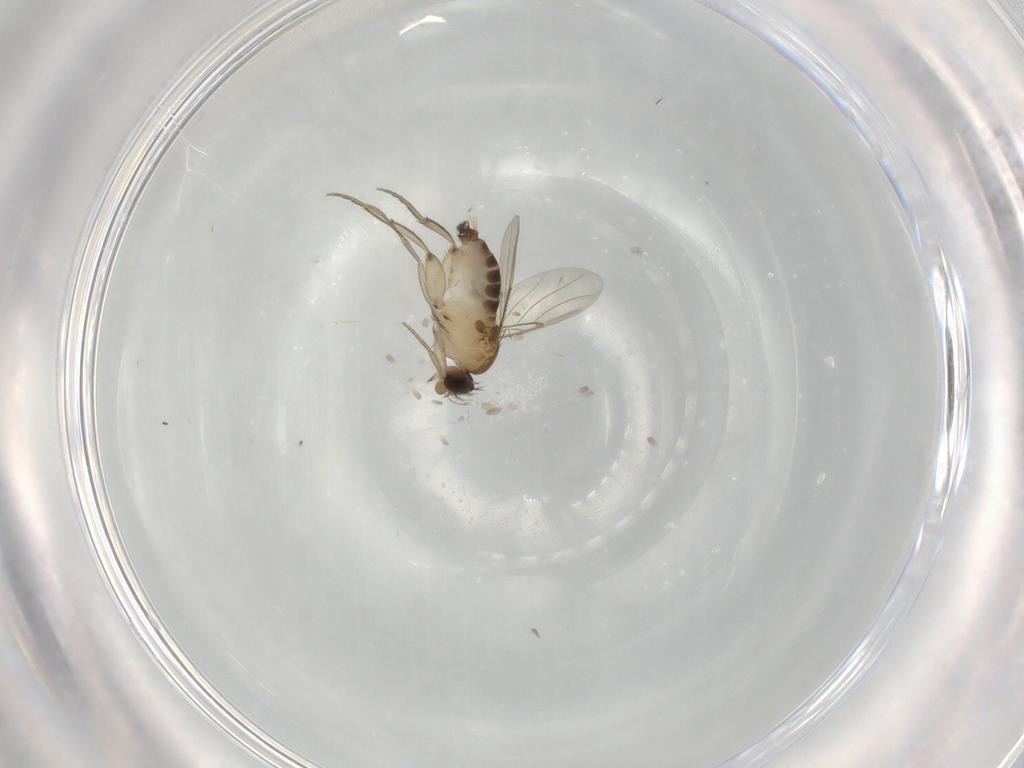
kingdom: Animalia
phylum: Arthropoda
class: Insecta
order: Diptera
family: Phoridae
